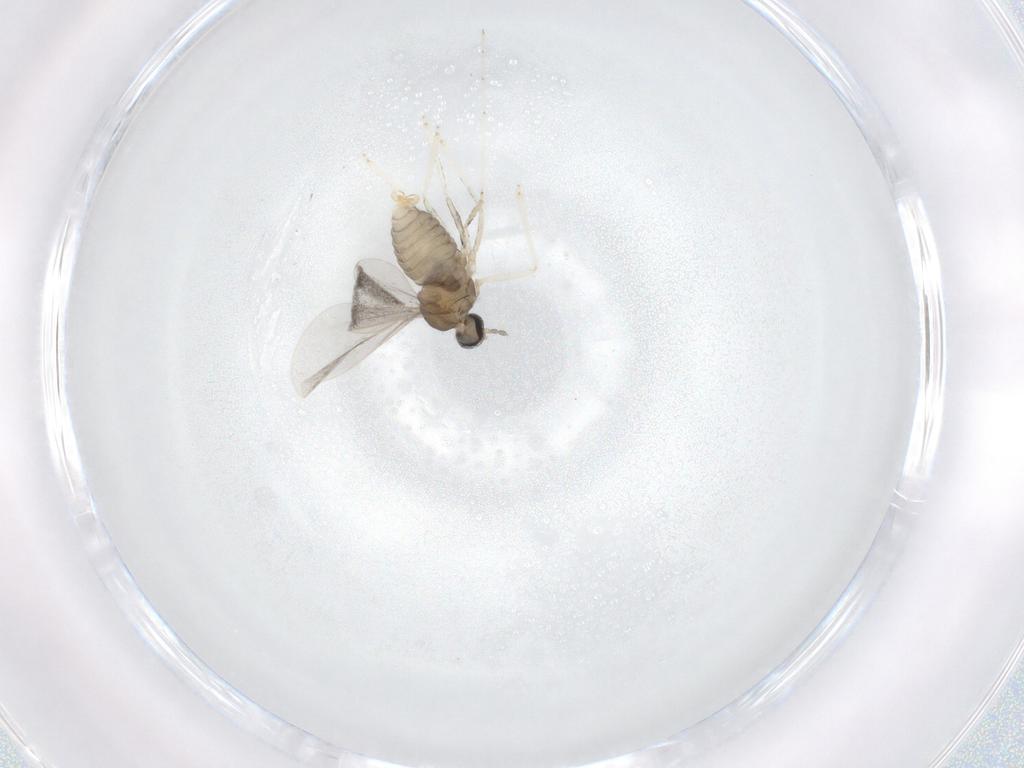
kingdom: Animalia
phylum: Arthropoda
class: Insecta
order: Diptera
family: Cecidomyiidae
